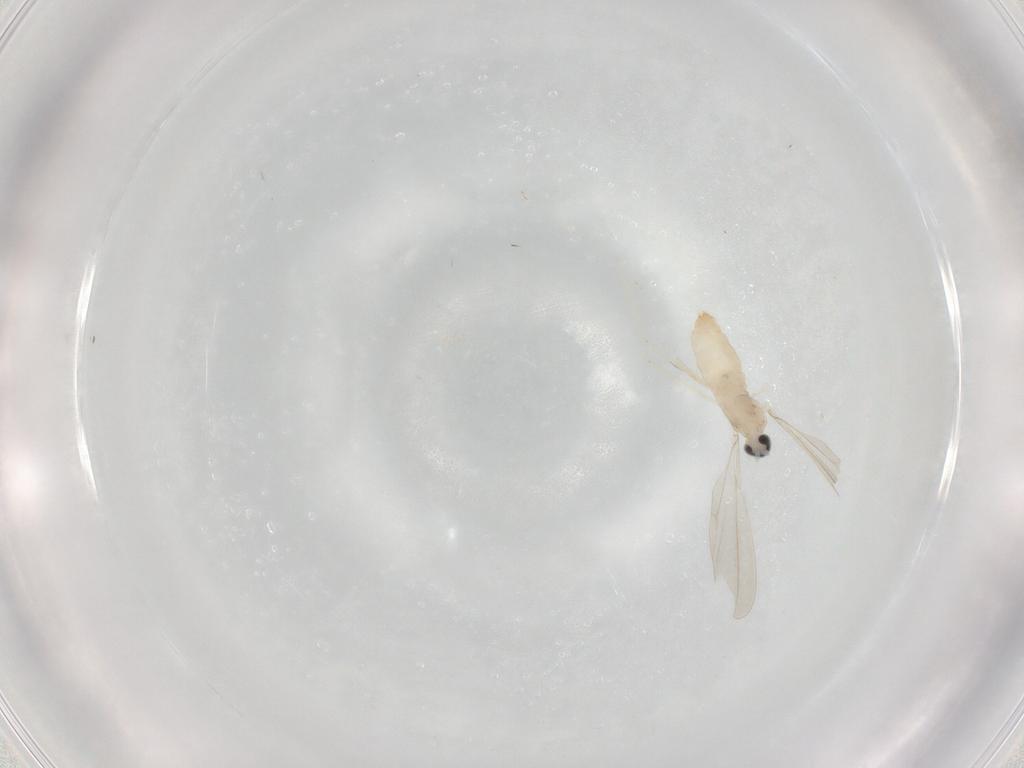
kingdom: Animalia
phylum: Arthropoda
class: Insecta
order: Diptera
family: Cecidomyiidae
